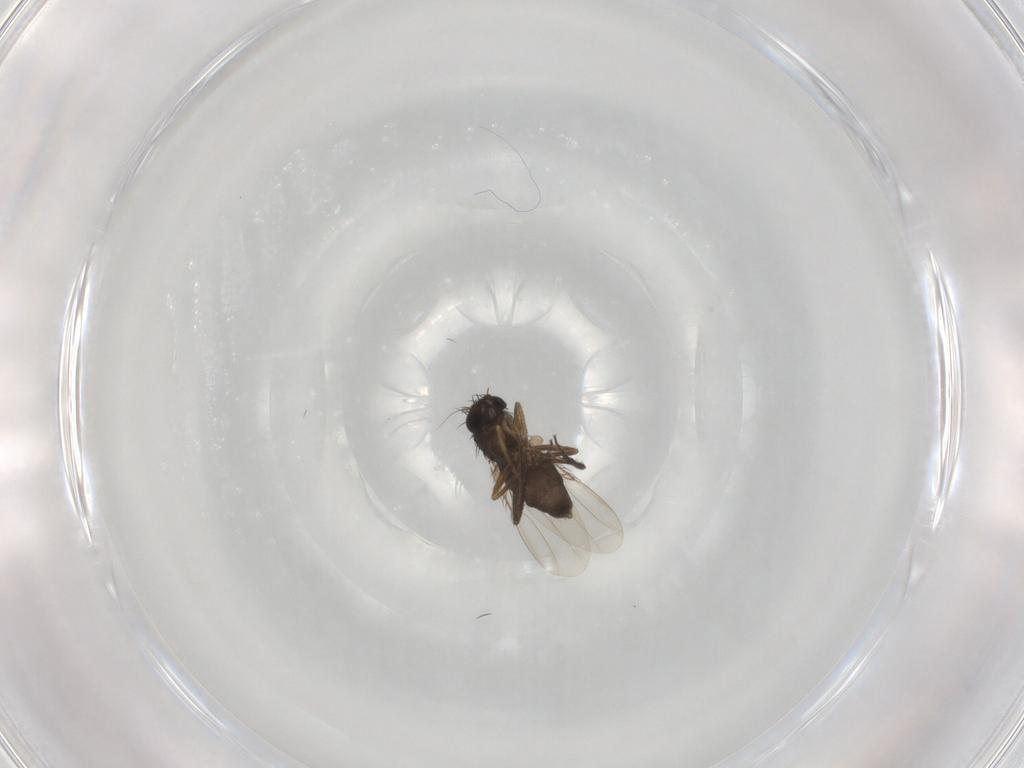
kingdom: Animalia
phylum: Arthropoda
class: Insecta
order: Diptera
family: Phoridae
